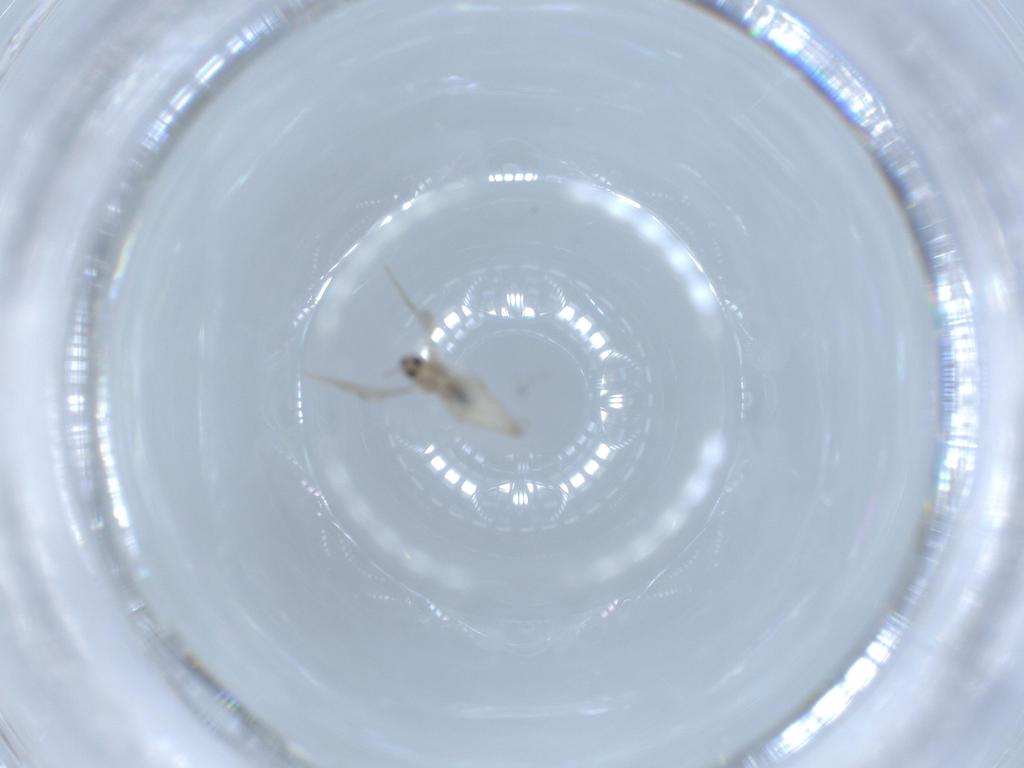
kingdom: Animalia
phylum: Arthropoda
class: Insecta
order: Diptera
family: Cecidomyiidae
